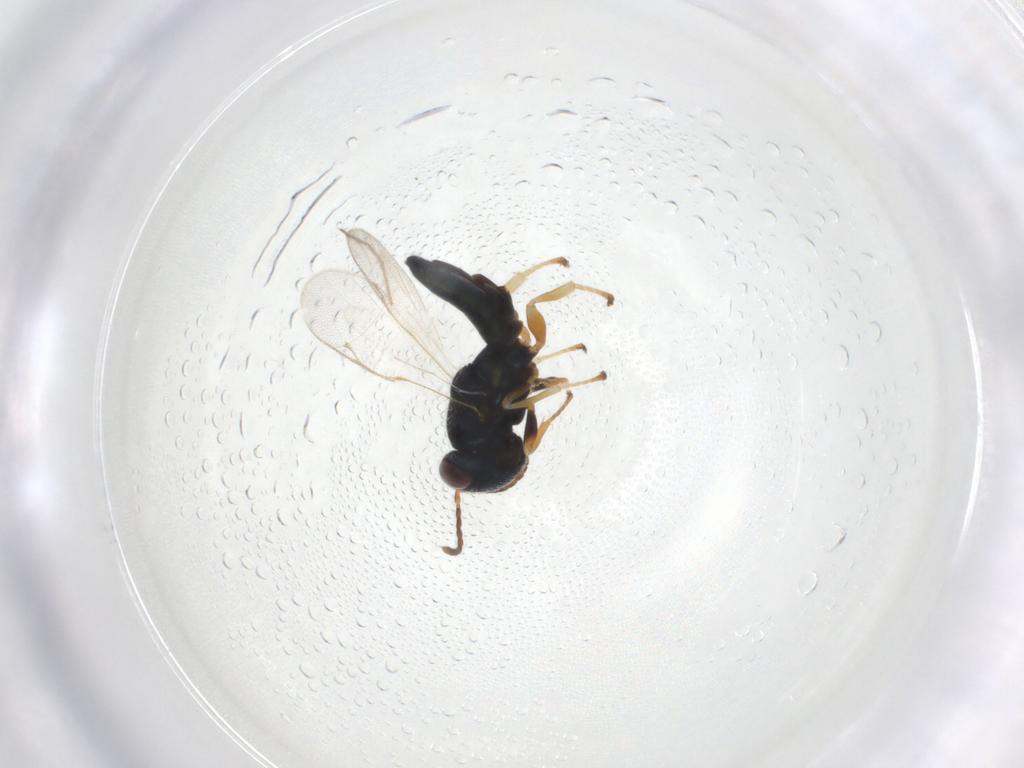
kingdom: Animalia
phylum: Arthropoda
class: Insecta
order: Hymenoptera
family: Pteromalidae
